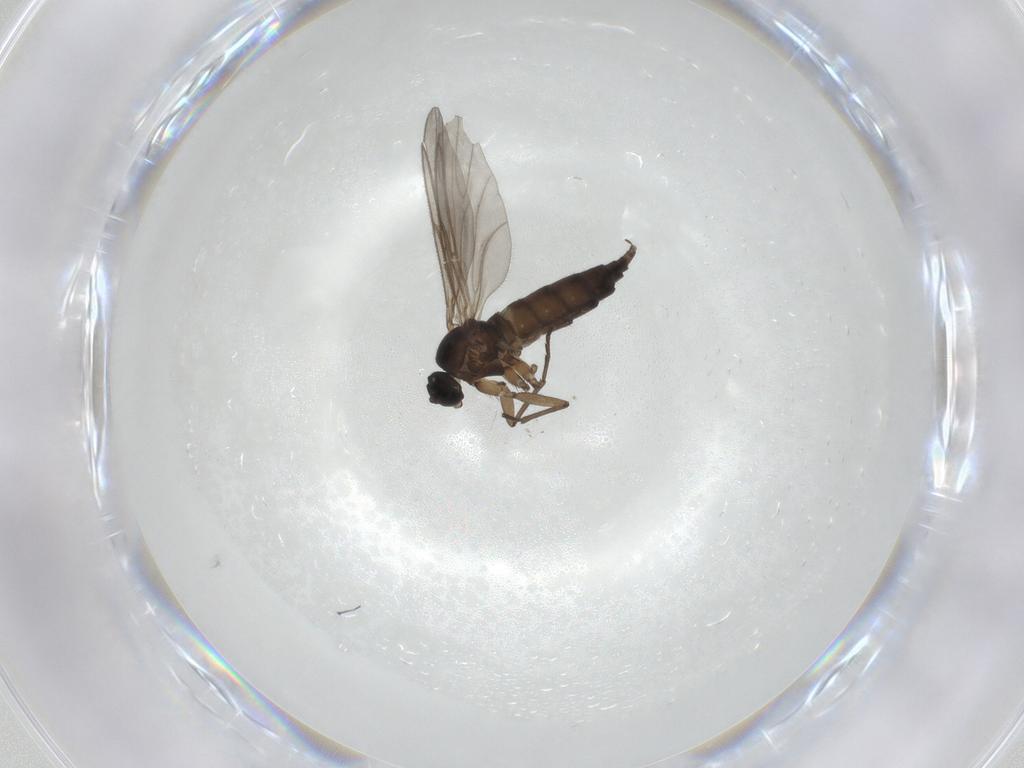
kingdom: Animalia
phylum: Arthropoda
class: Insecta
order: Diptera
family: Sciaridae
